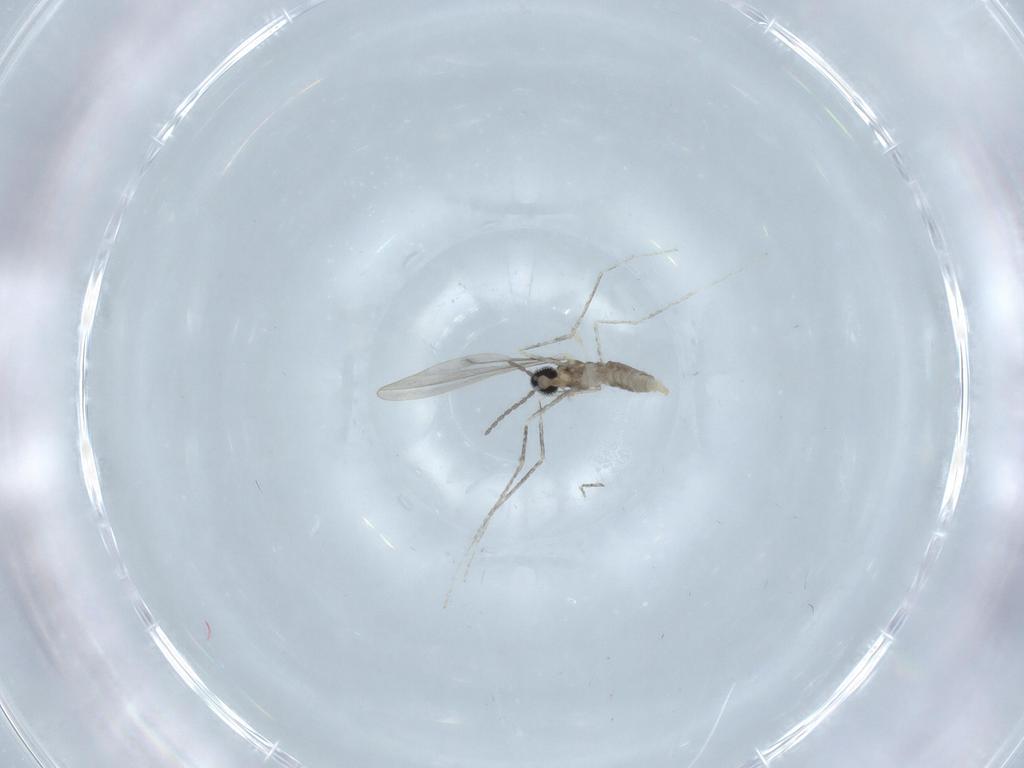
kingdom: Animalia
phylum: Arthropoda
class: Insecta
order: Diptera
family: Cecidomyiidae
